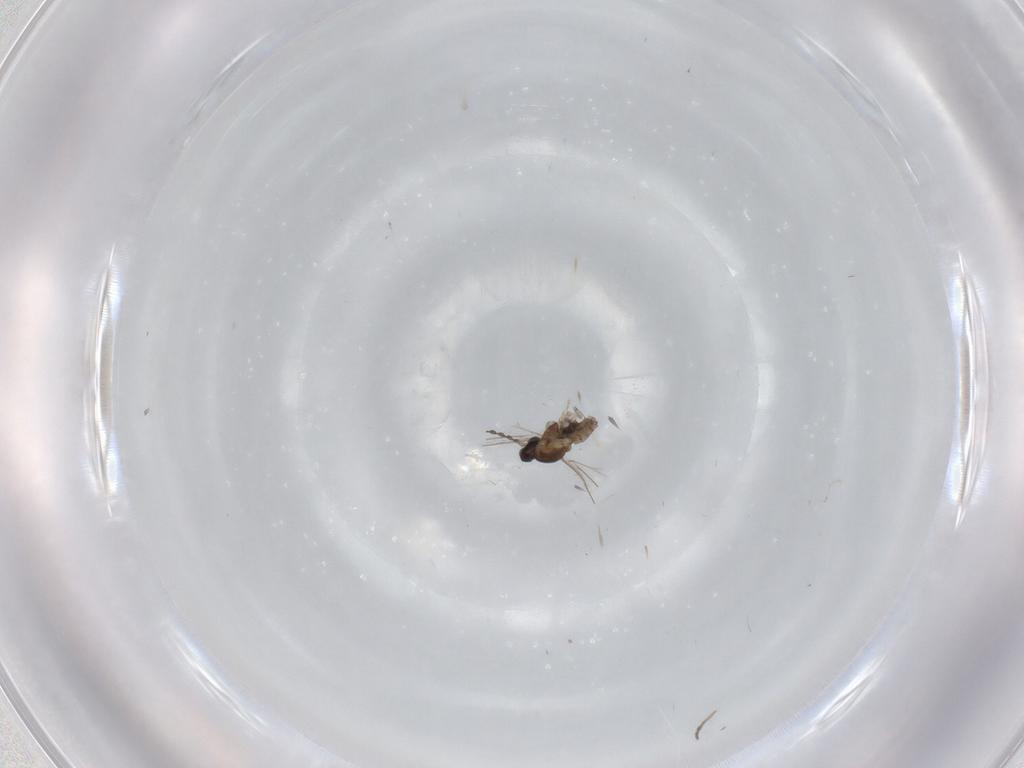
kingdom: Animalia
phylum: Arthropoda
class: Insecta
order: Diptera
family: Cecidomyiidae
